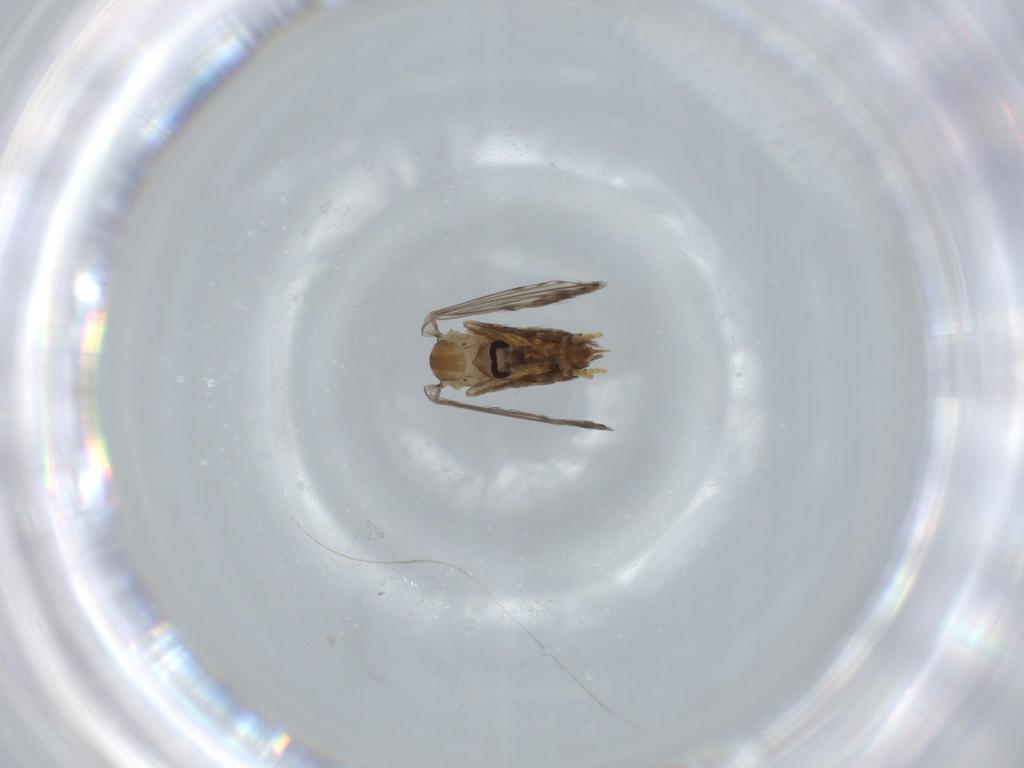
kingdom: Animalia
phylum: Arthropoda
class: Insecta
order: Diptera
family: Psychodidae
